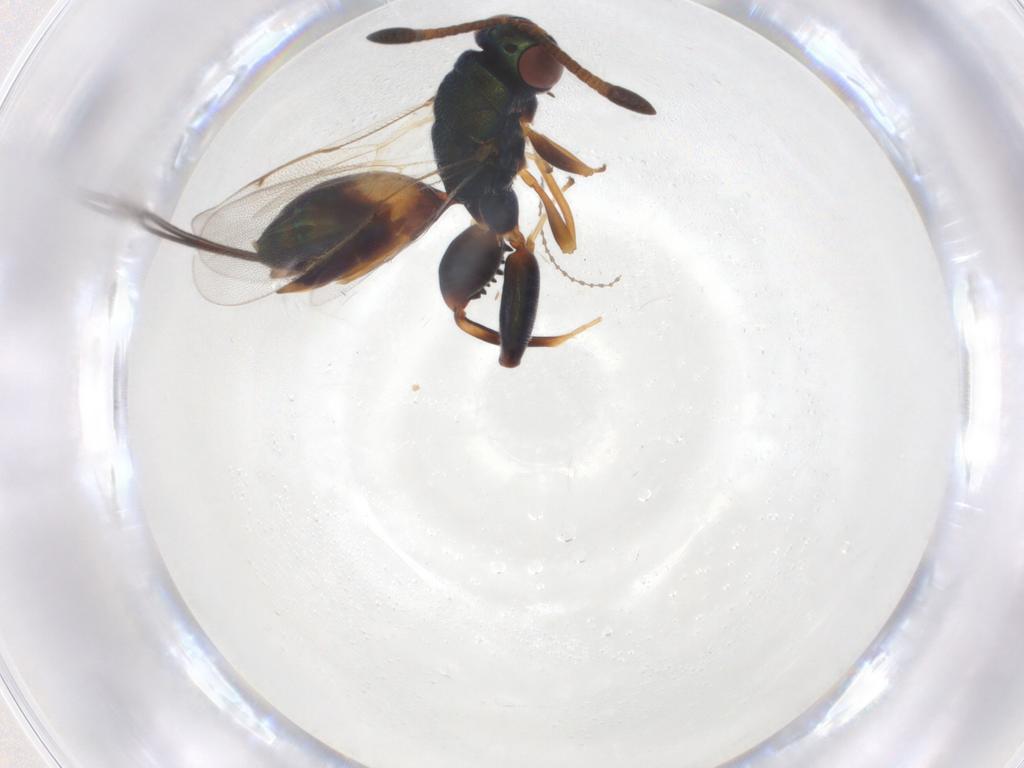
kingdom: Animalia
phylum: Arthropoda
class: Insecta
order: Hymenoptera
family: Torymidae
